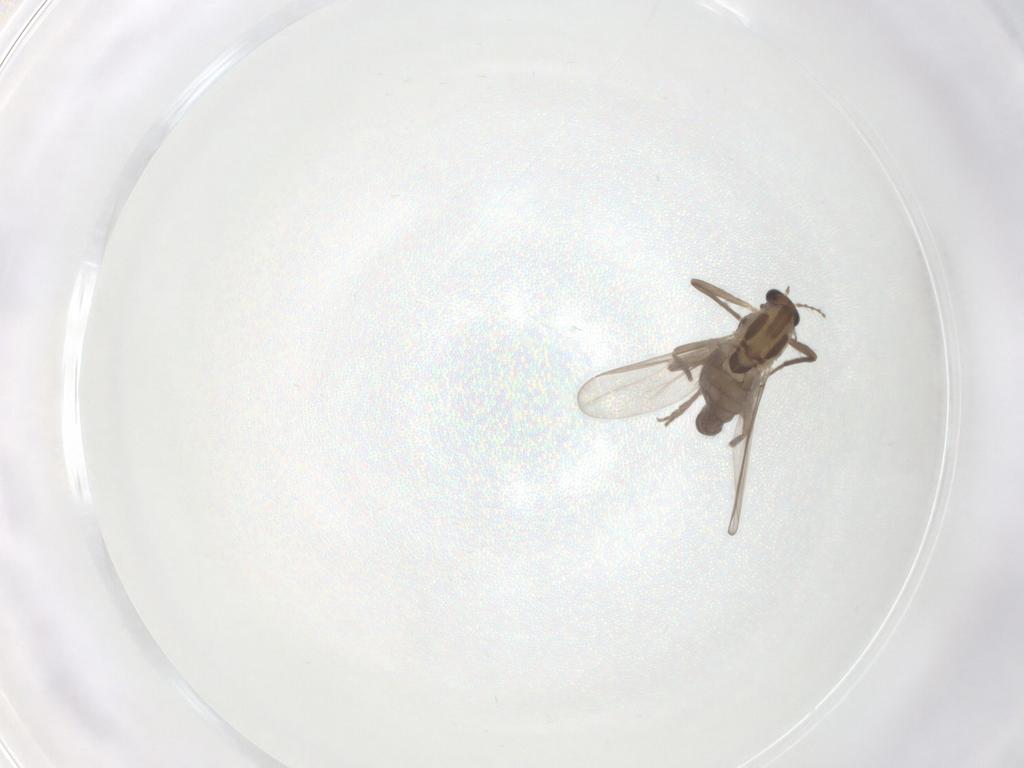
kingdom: Animalia
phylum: Arthropoda
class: Insecta
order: Diptera
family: Chironomidae
